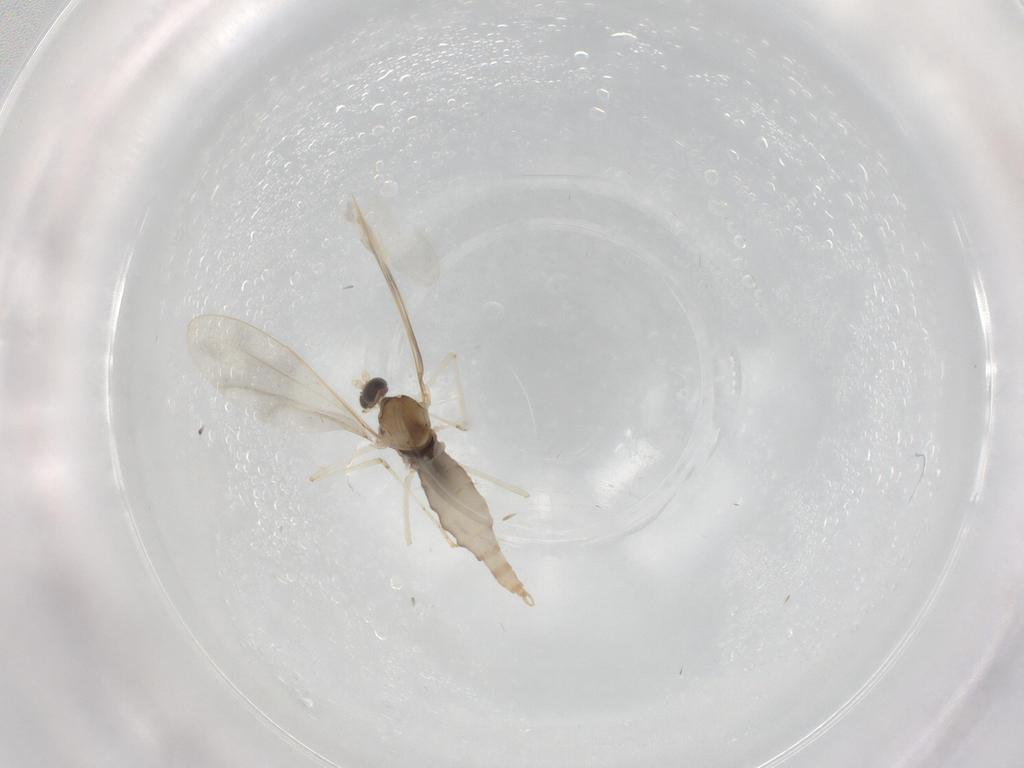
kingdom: Animalia
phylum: Arthropoda
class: Insecta
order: Diptera
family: Cecidomyiidae
